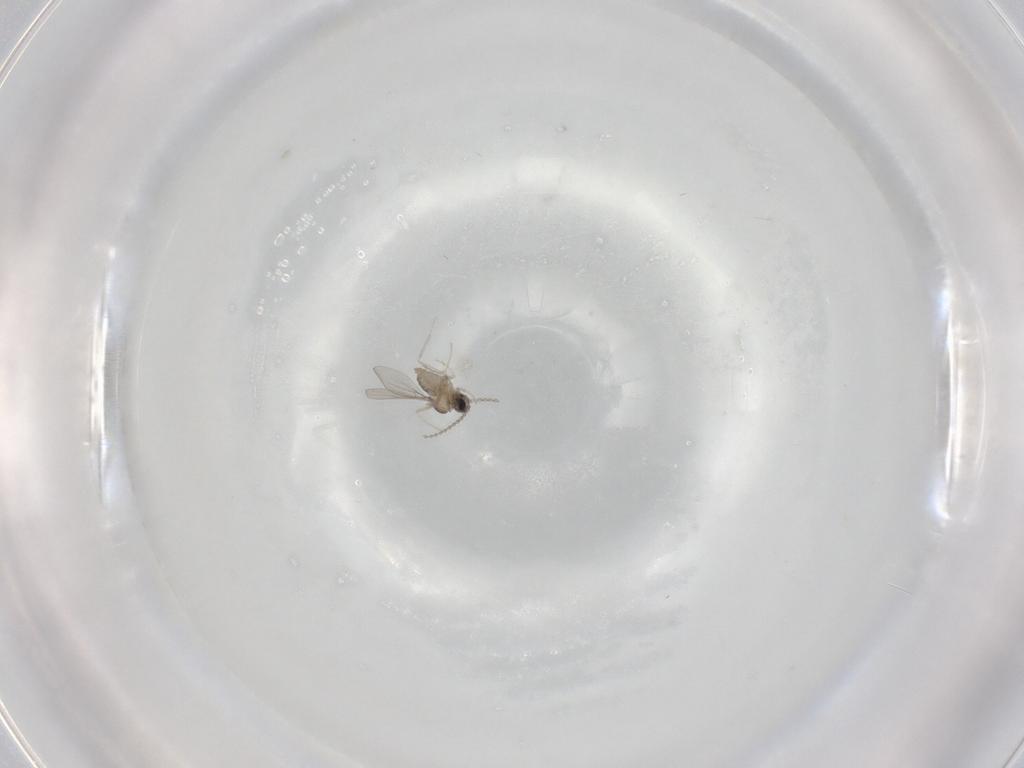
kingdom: Animalia
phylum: Arthropoda
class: Insecta
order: Diptera
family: Cecidomyiidae
